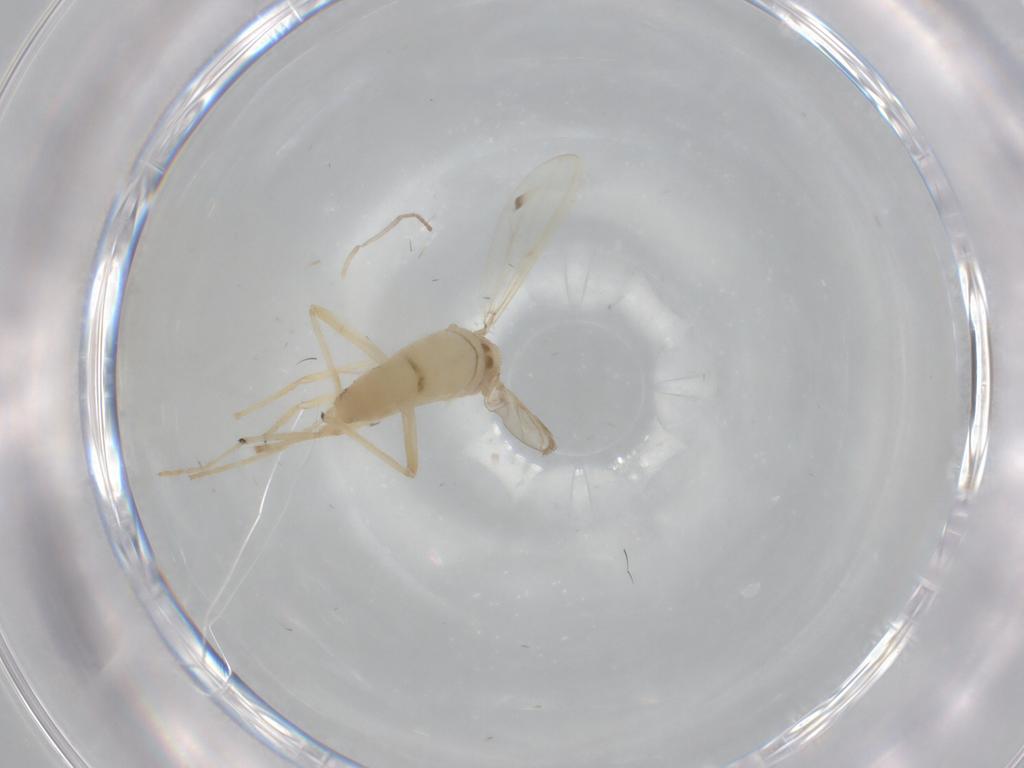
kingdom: Animalia
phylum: Arthropoda
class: Insecta
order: Diptera
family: Chironomidae
